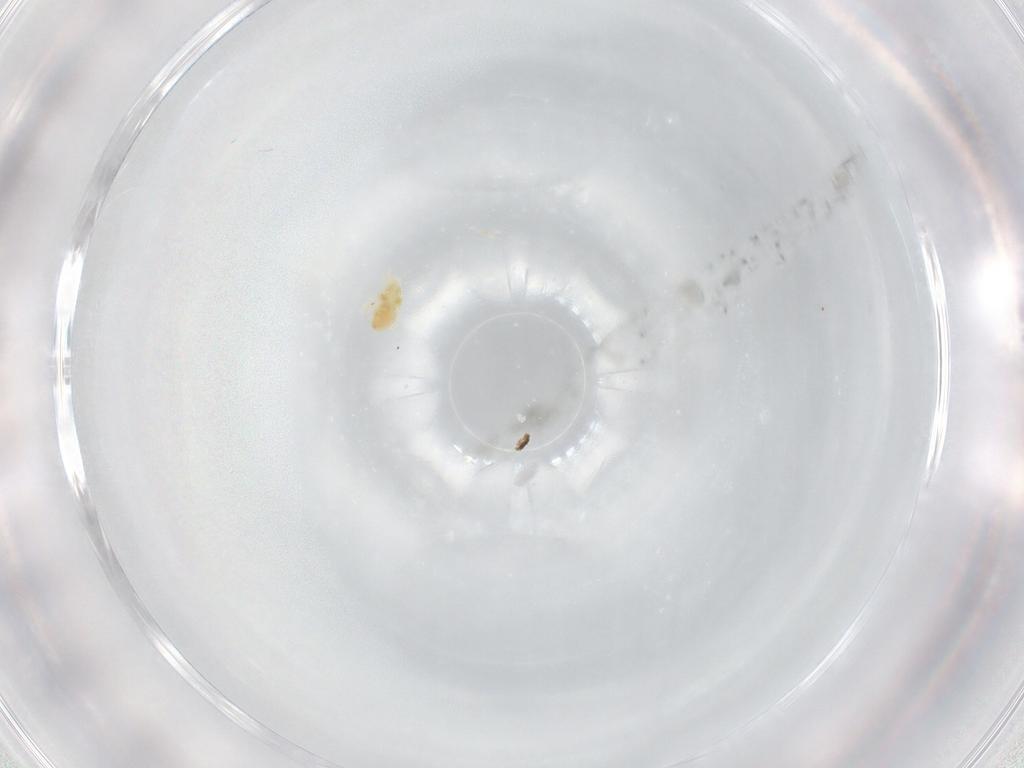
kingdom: Animalia
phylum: Arthropoda
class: Arachnida
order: Trombidiformes
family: Eupodidae
